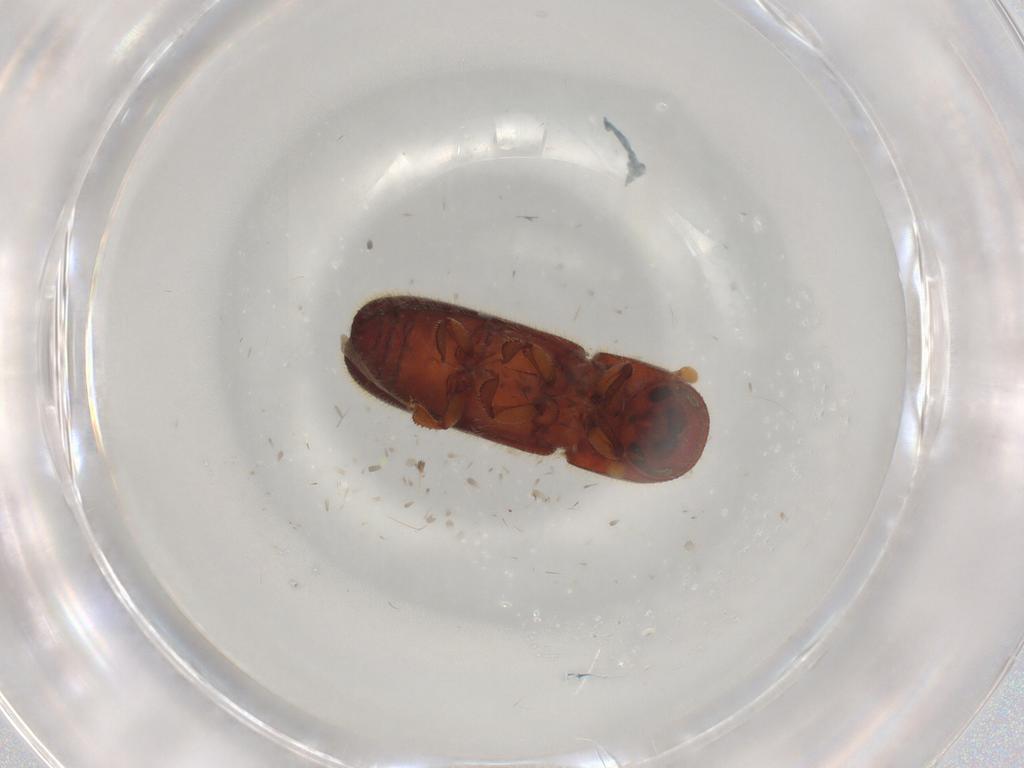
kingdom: Animalia
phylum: Arthropoda
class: Insecta
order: Coleoptera
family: Curculionidae
